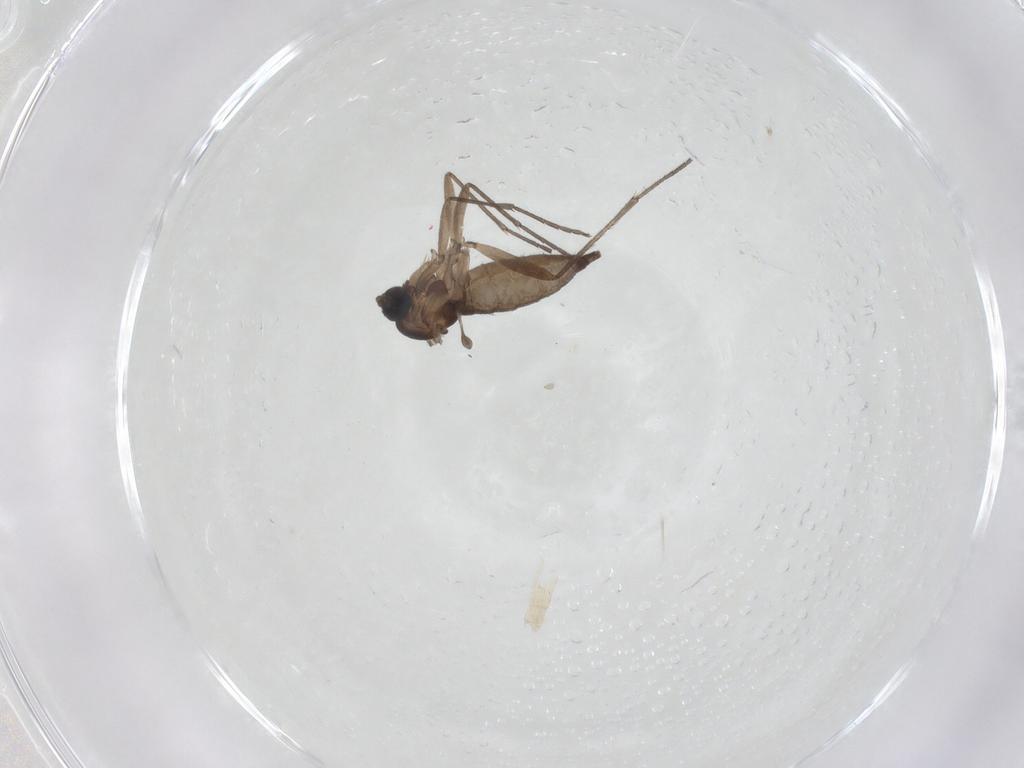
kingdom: Animalia
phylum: Arthropoda
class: Insecta
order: Diptera
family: Sciaridae
